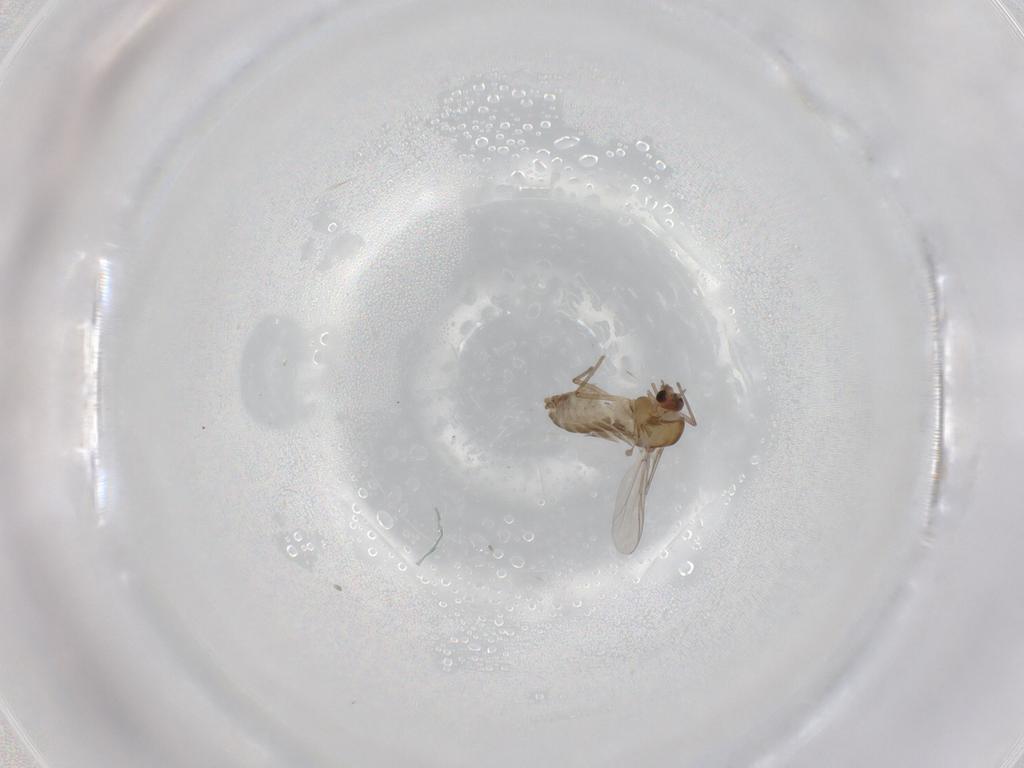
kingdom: Animalia
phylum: Arthropoda
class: Insecta
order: Diptera
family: Chironomidae
